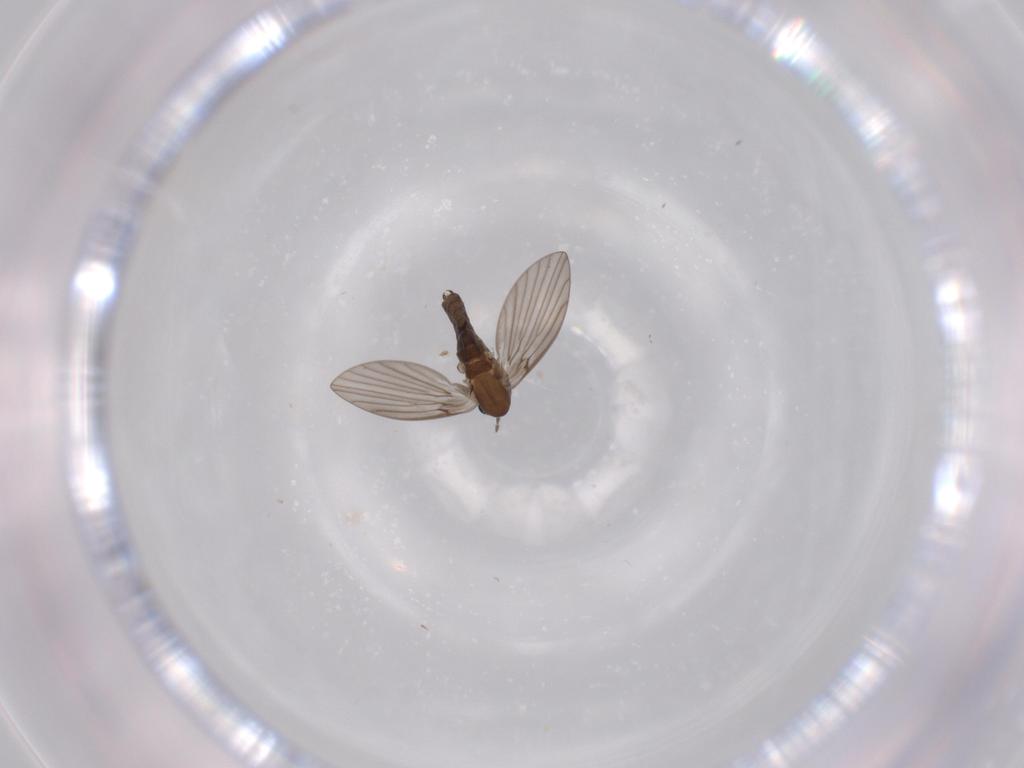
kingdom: Animalia
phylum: Arthropoda
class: Insecta
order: Diptera
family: Psychodidae
